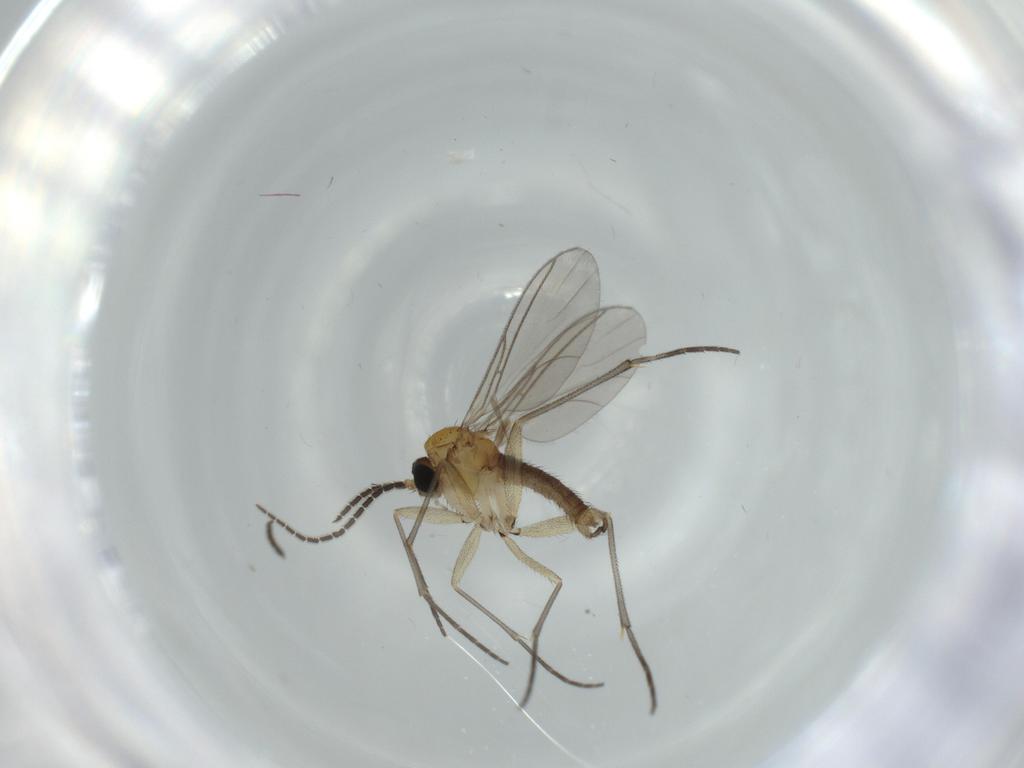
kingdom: Animalia
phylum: Arthropoda
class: Insecta
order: Diptera
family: Sciaridae
